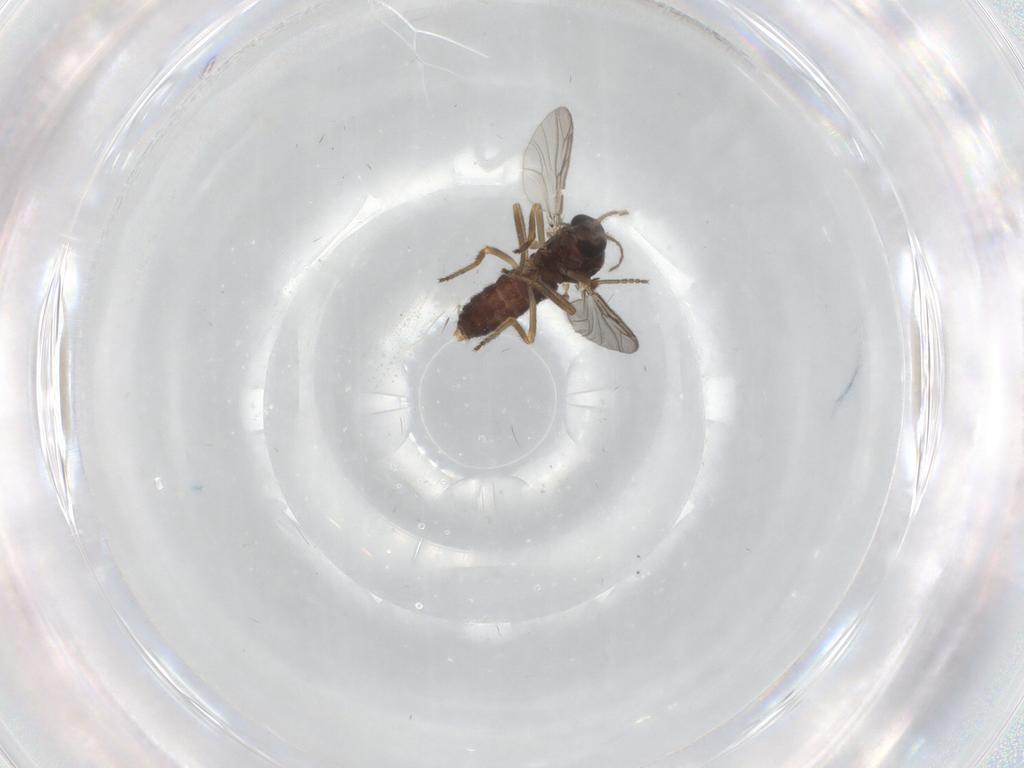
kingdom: Animalia
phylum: Arthropoda
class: Insecta
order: Diptera
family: Ceratopogonidae
